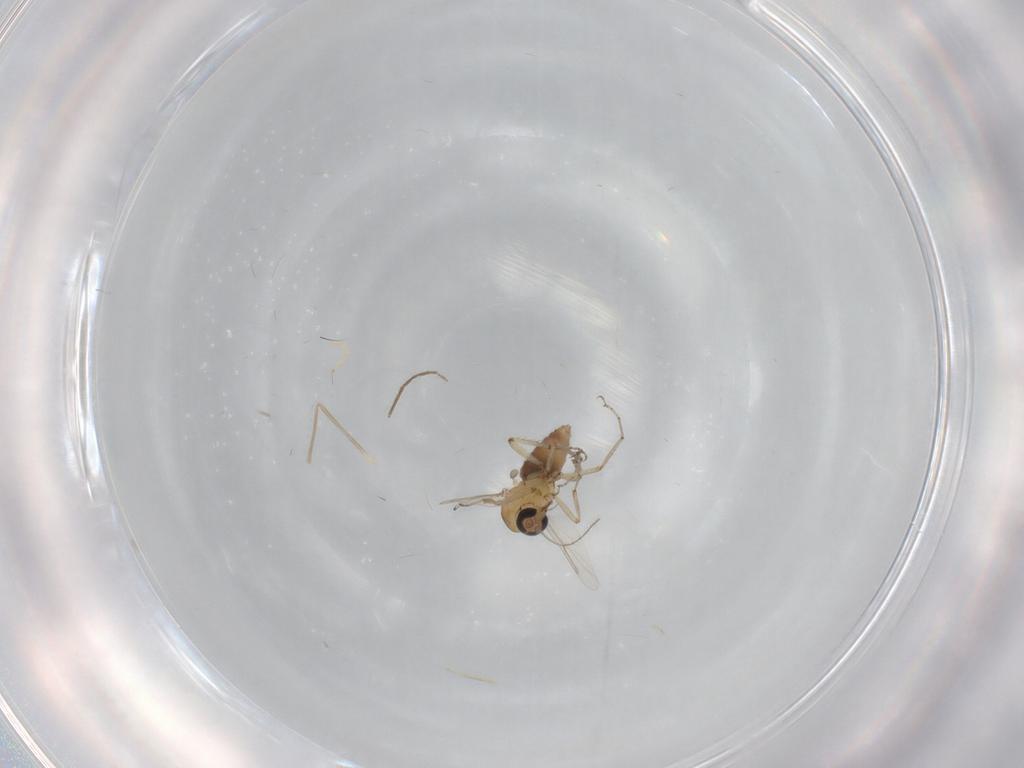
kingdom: Animalia
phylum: Arthropoda
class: Insecta
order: Diptera
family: Ceratopogonidae
